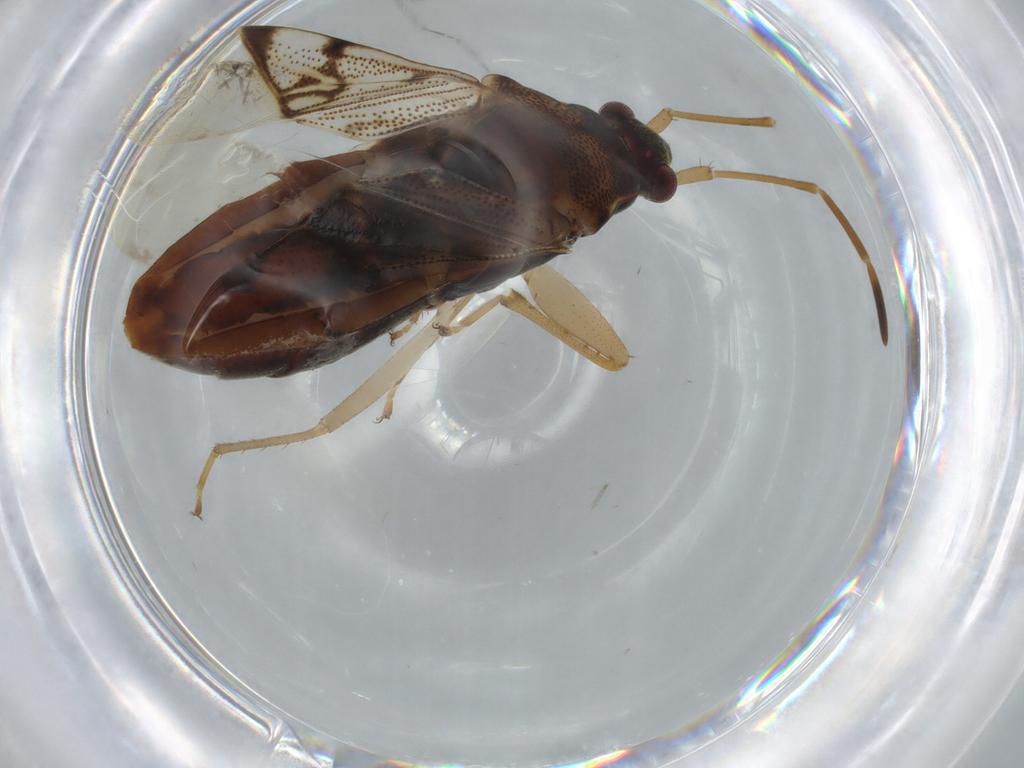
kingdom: Animalia
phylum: Arthropoda
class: Insecta
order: Hemiptera
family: Rhyparochromidae
